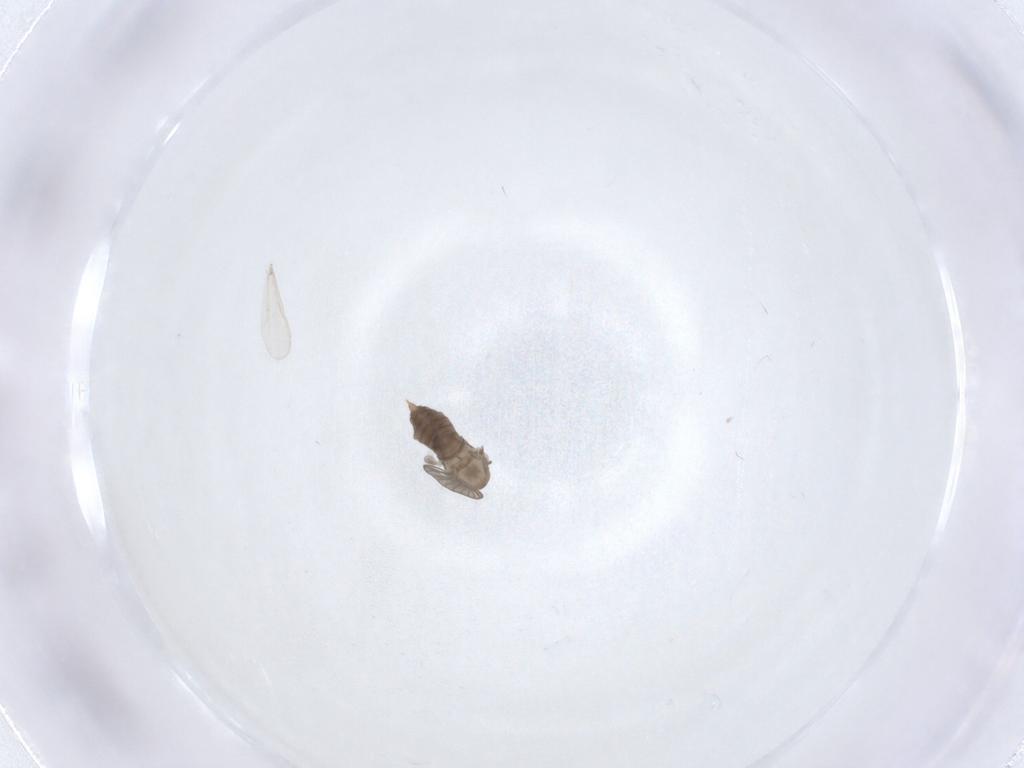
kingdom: Animalia
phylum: Arthropoda
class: Insecta
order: Diptera
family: Psychodidae
